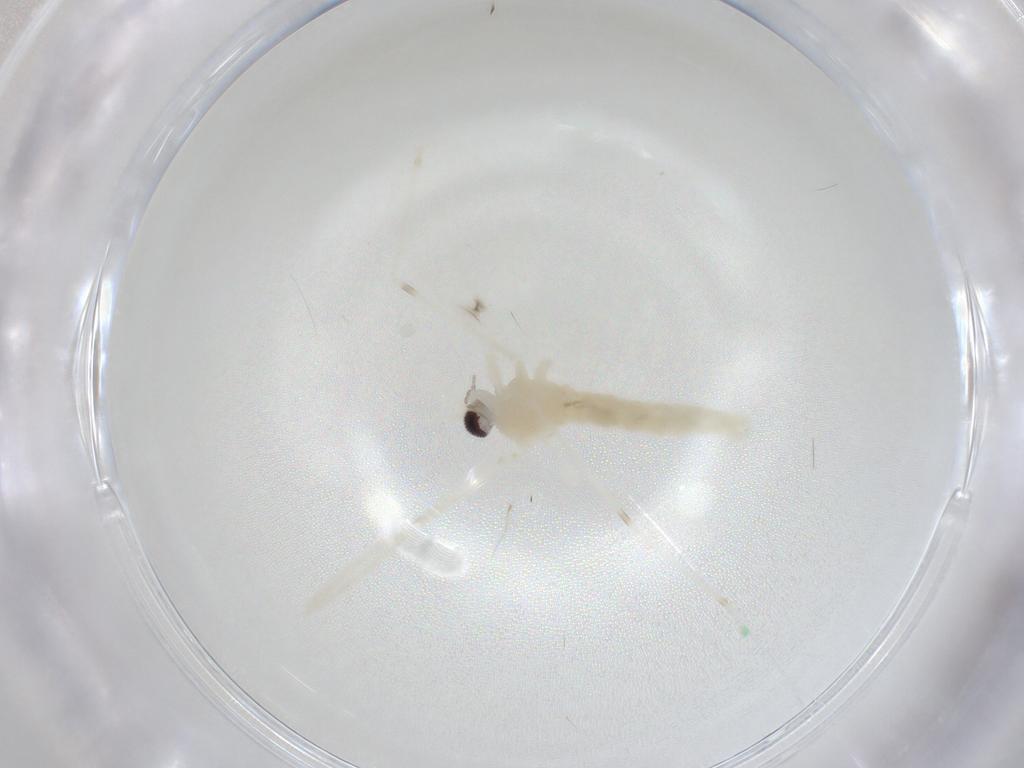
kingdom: Animalia
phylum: Arthropoda
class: Insecta
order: Diptera
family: Cecidomyiidae
